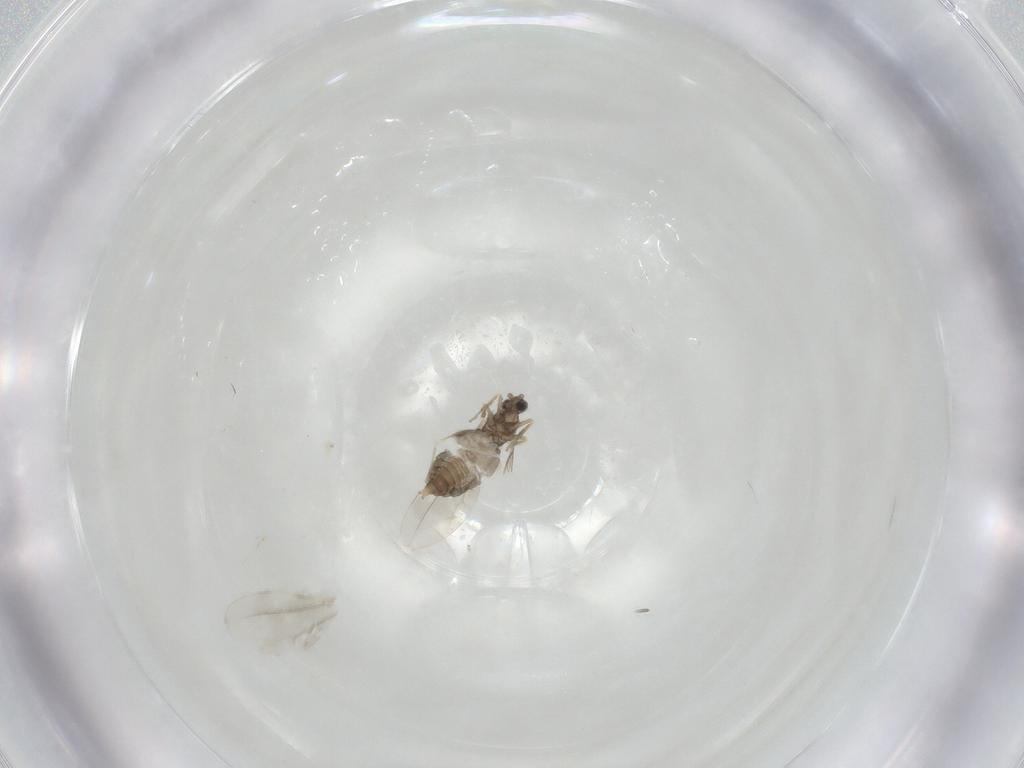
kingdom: Animalia
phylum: Arthropoda
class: Insecta
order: Diptera
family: Cecidomyiidae
